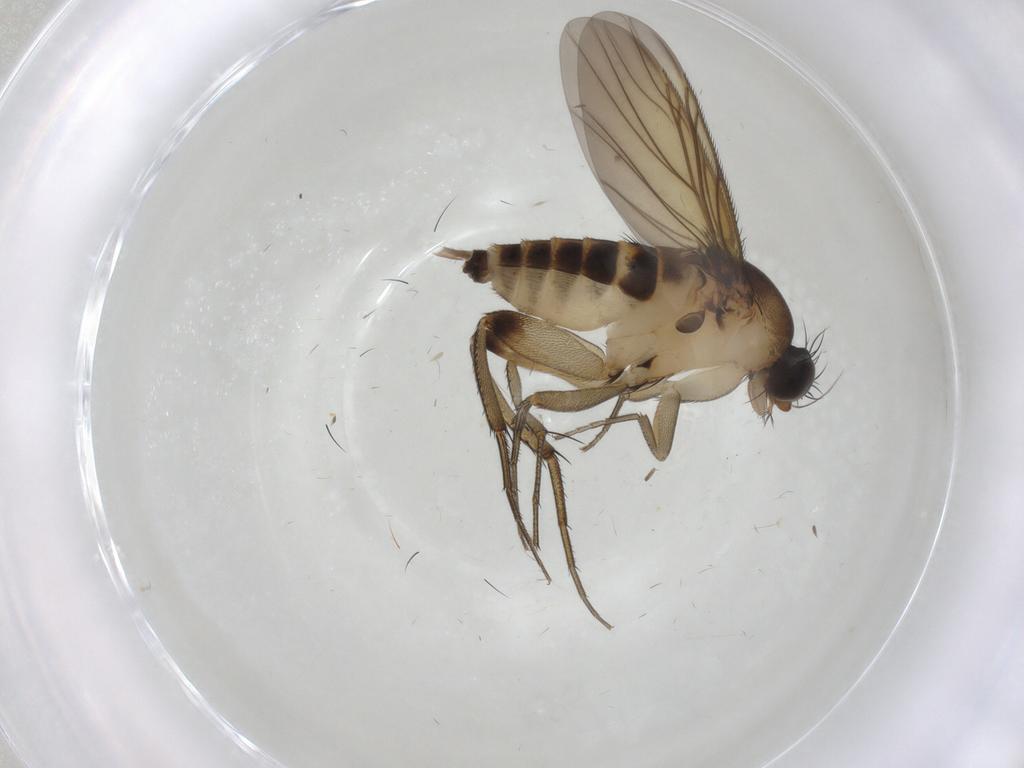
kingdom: Animalia
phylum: Arthropoda
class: Insecta
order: Diptera
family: Phoridae
